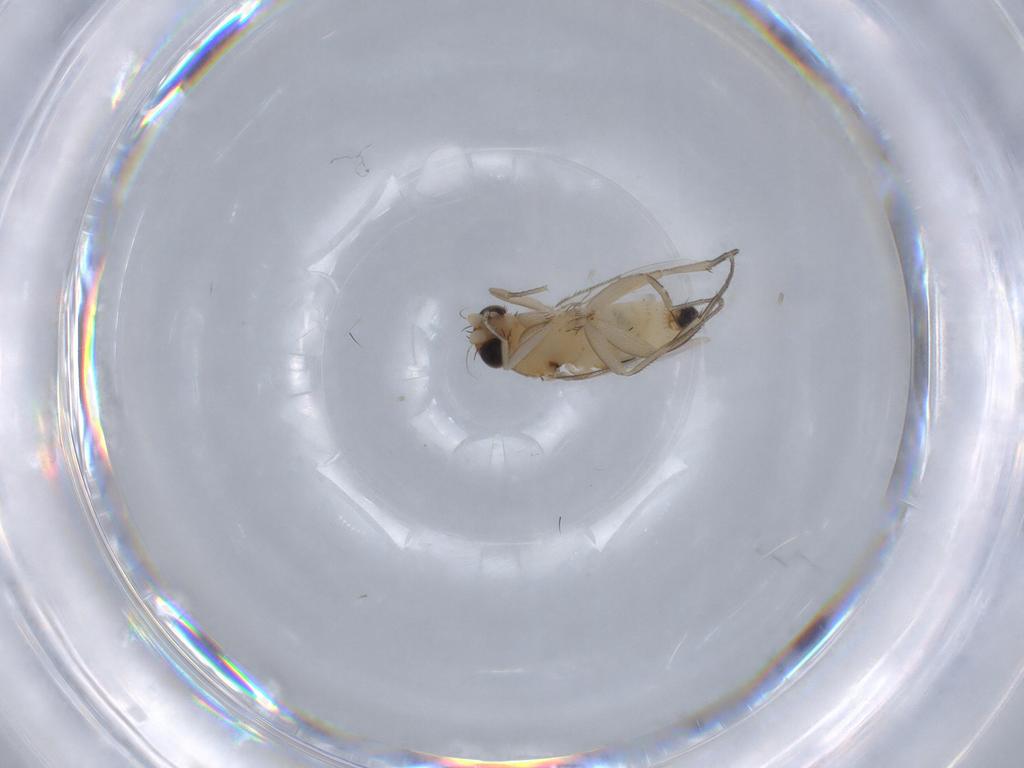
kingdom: Animalia
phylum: Arthropoda
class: Insecta
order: Diptera
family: Phoridae
